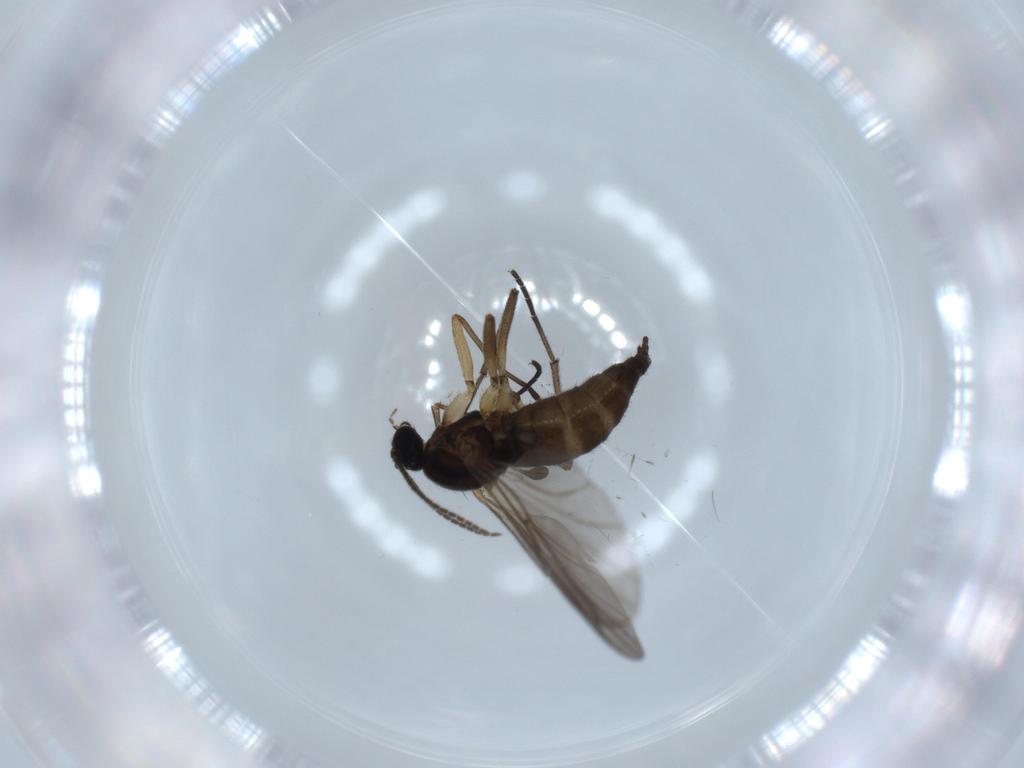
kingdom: Animalia
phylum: Arthropoda
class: Insecta
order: Diptera
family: Sciaridae
